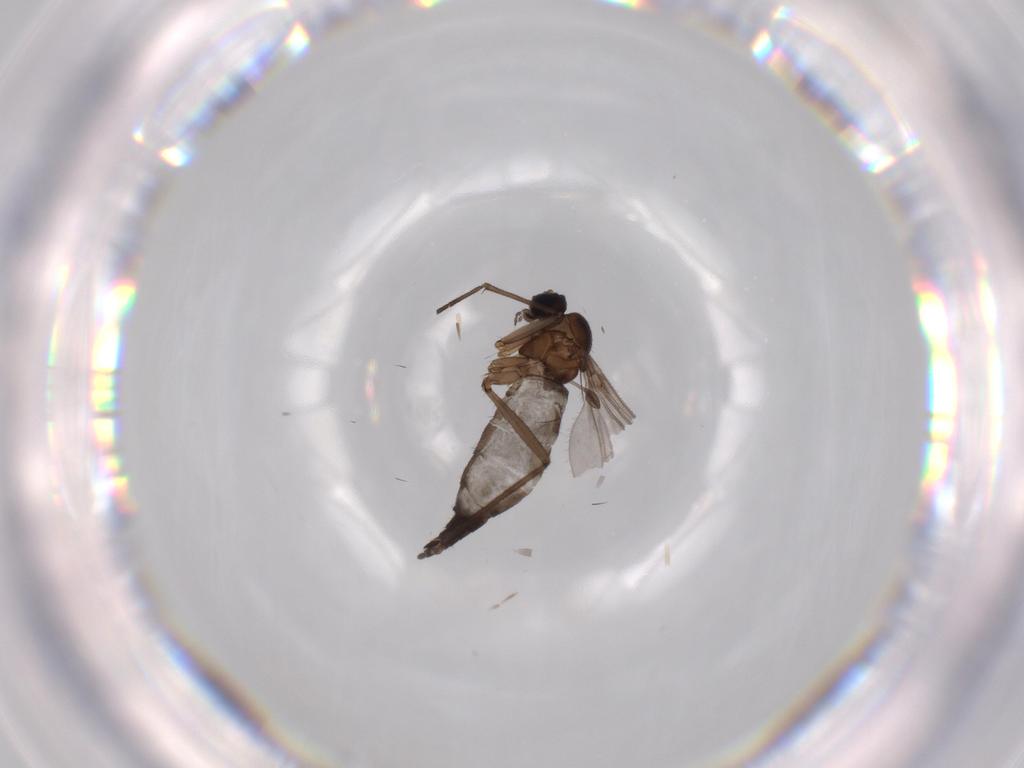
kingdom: Animalia
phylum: Arthropoda
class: Insecta
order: Diptera
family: Sciaridae
